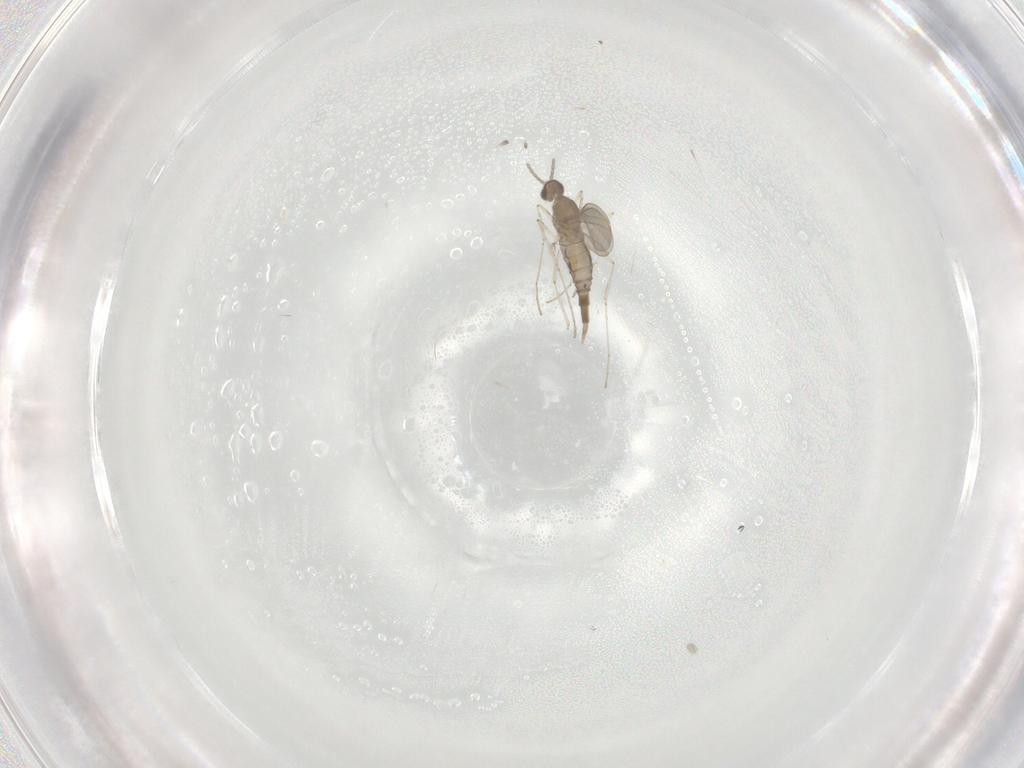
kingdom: Animalia
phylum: Arthropoda
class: Insecta
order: Diptera
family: Cecidomyiidae
